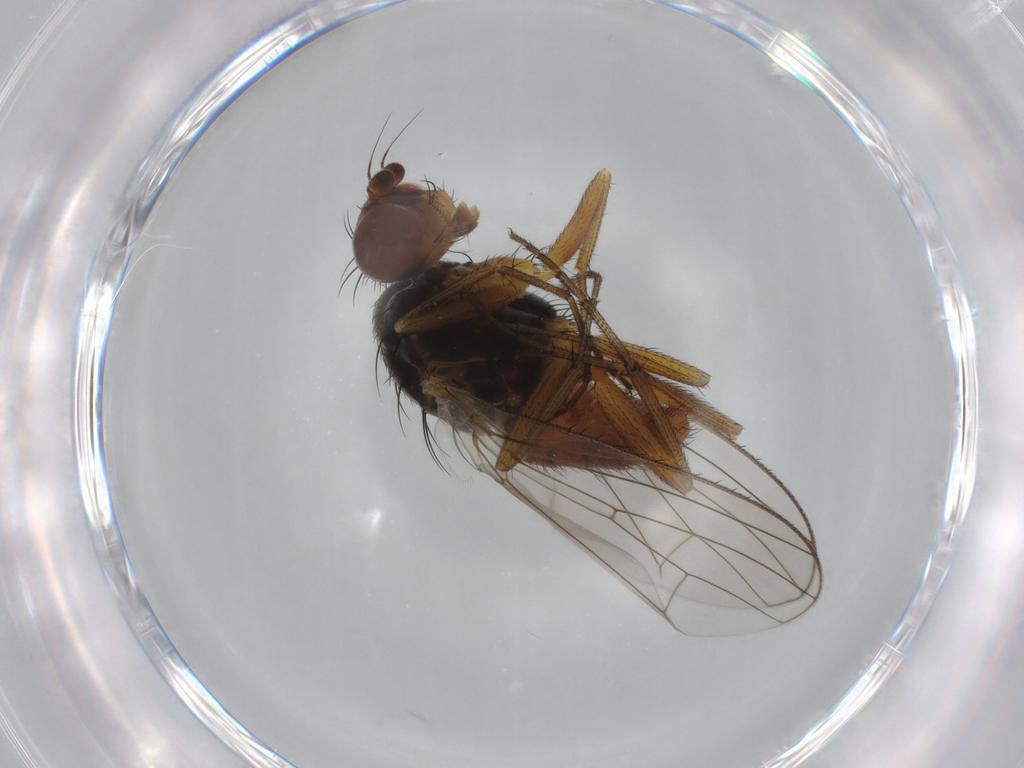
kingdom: Animalia
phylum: Arthropoda
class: Insecta
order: Diptera
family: Heleomyzidae
